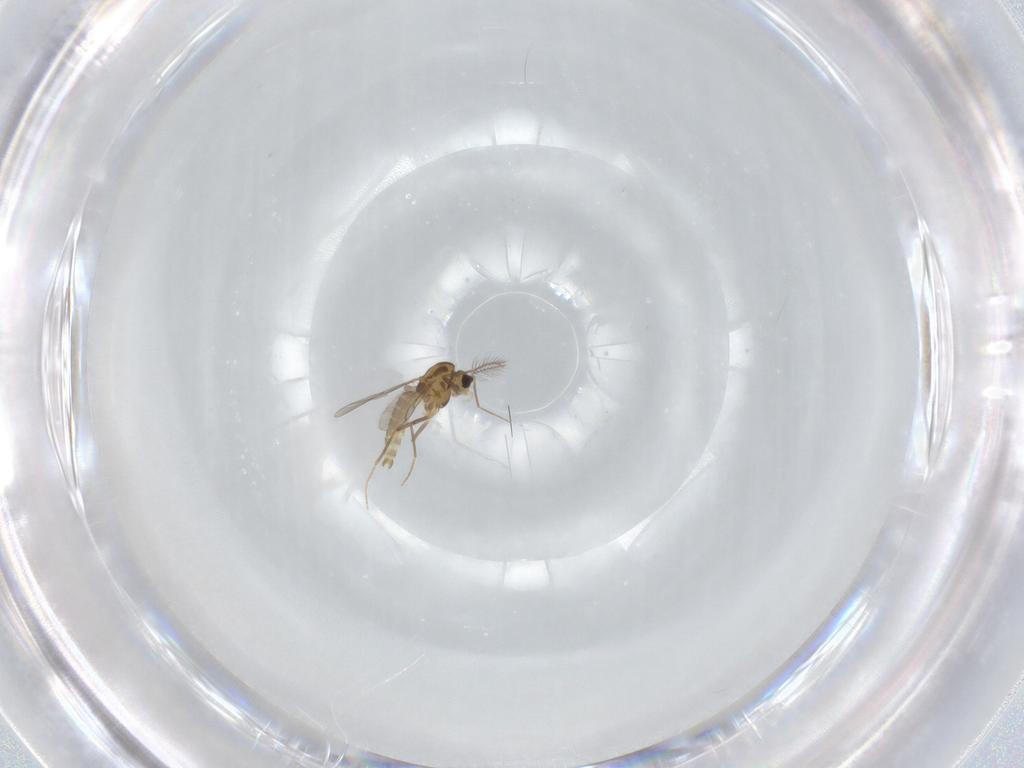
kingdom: Animalia
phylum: Arthropoda
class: Insecta
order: Diptera
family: Chironomidae
